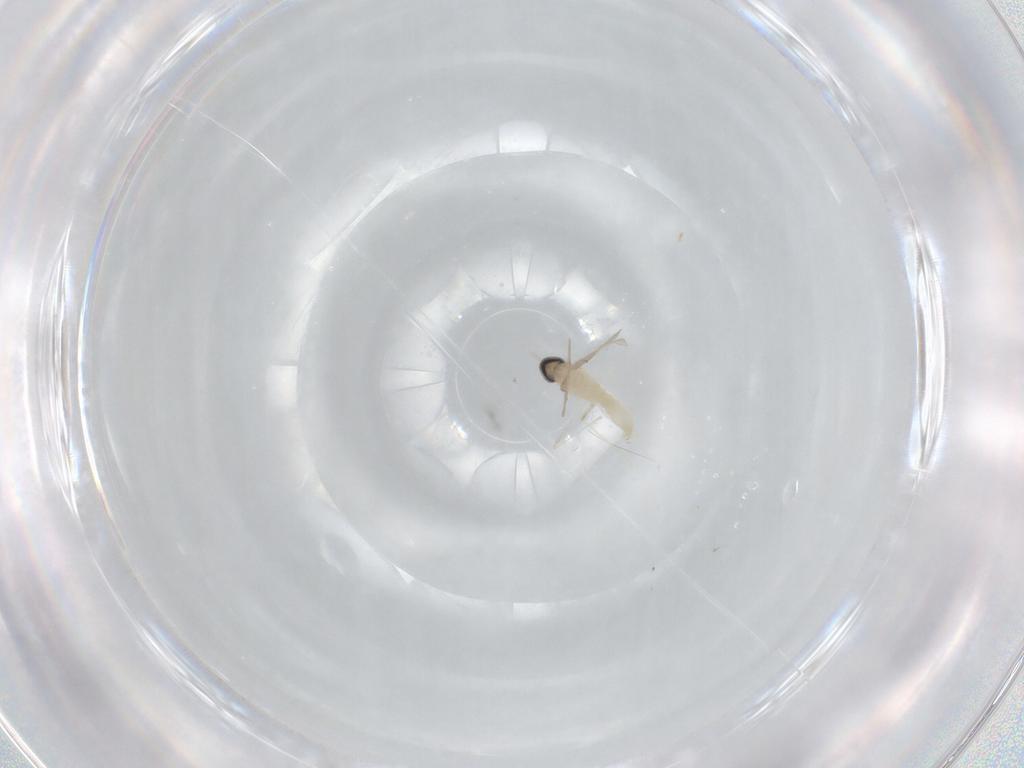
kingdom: Animalia
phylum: Arthropoda
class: Insecta
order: Diptera
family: Cecidomyiidae
